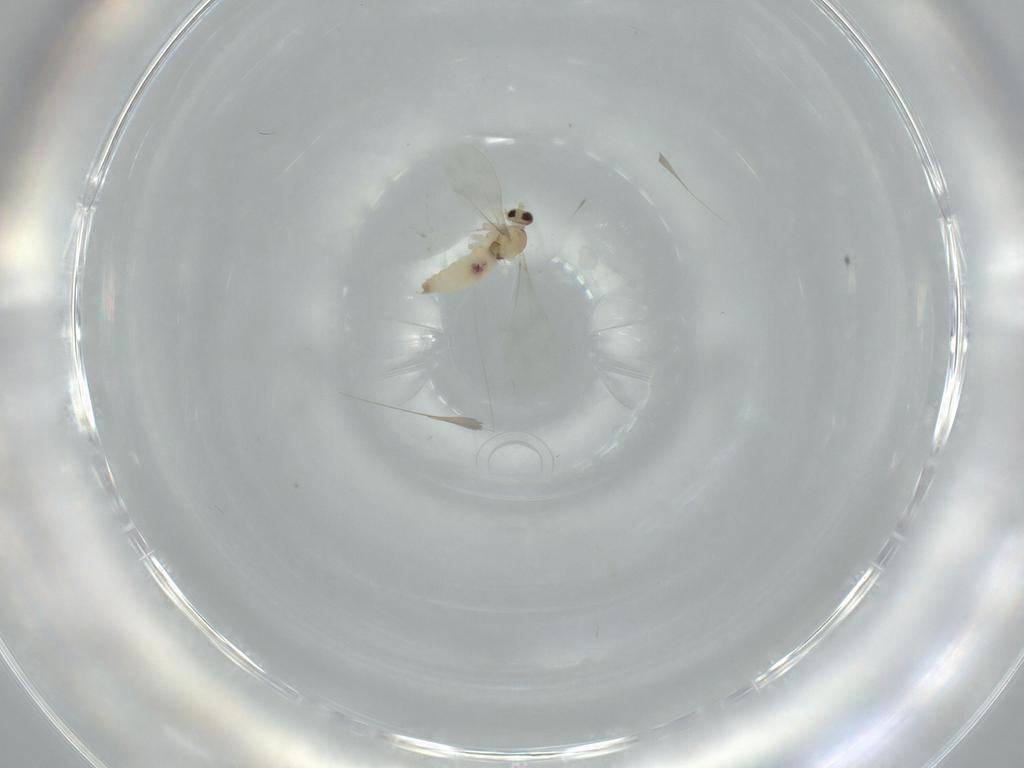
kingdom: Animalia
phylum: Arthropoda
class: Insecta
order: Diptera
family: Cecidomyiidae
